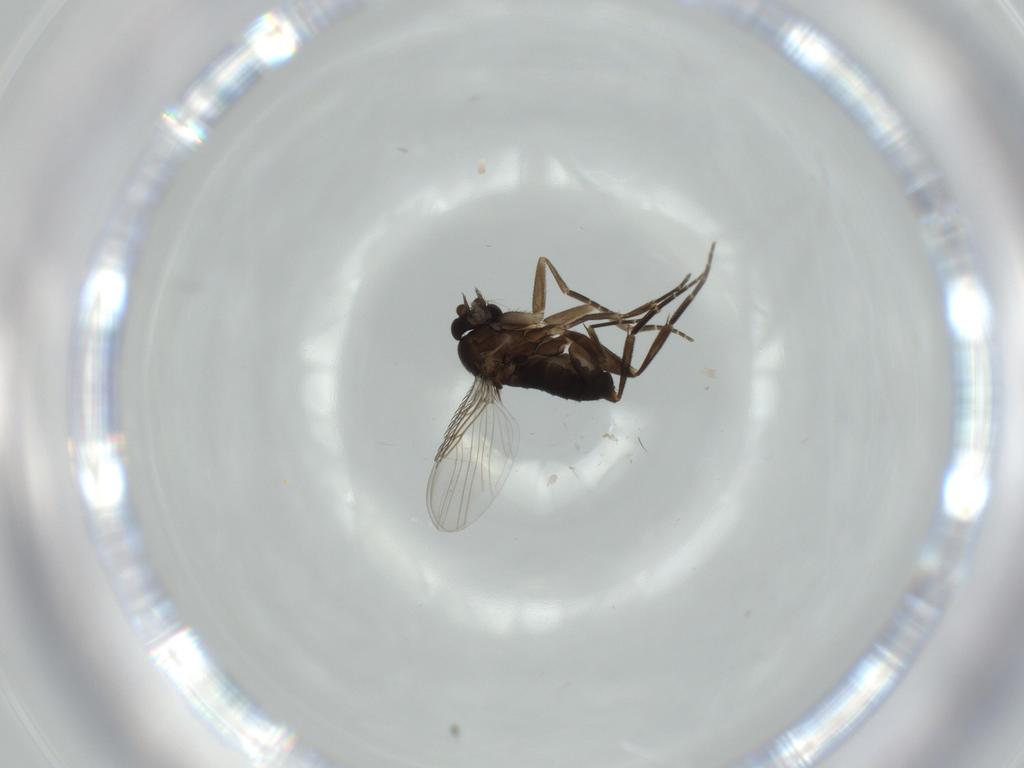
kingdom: Animalia
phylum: Arthropoda
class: Insecta
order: Diptera
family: Phoridae
